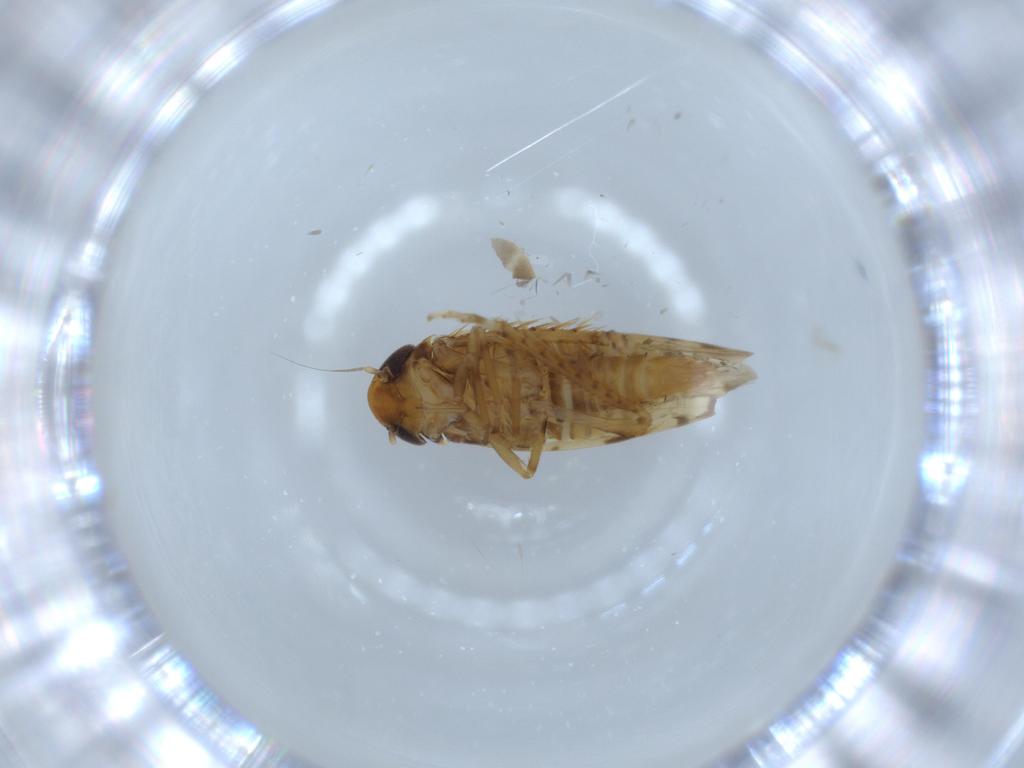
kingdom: Animalia
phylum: Arthropoda
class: Insecta
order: Hemiptera
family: Cicadellidae
